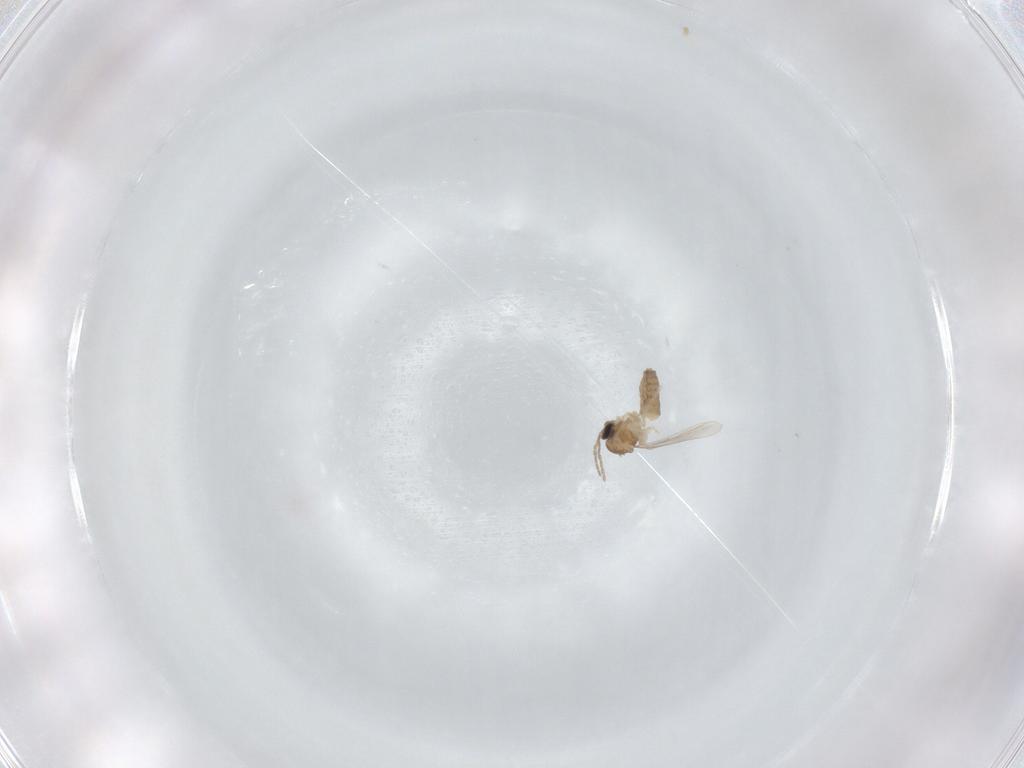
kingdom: Animalia
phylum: Arthropoda
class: Insecta
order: Diptera
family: Cecidomyiidae
